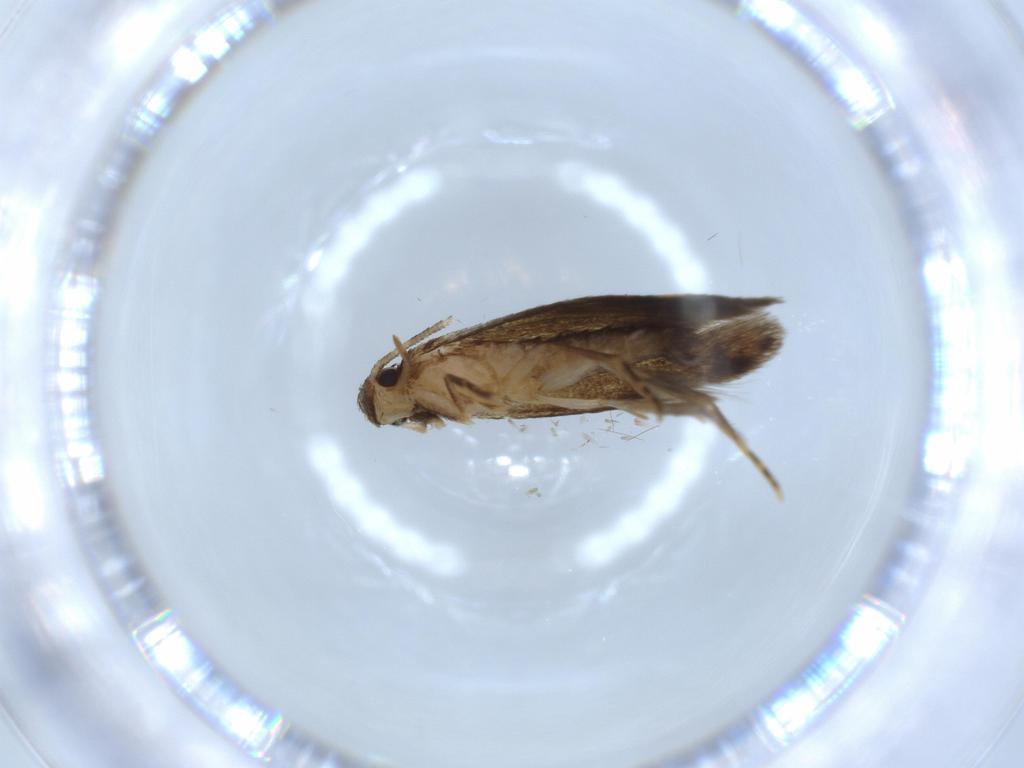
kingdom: Animalia
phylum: Arthropoda
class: Insecta
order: Lepidoptera
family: Tineidae
